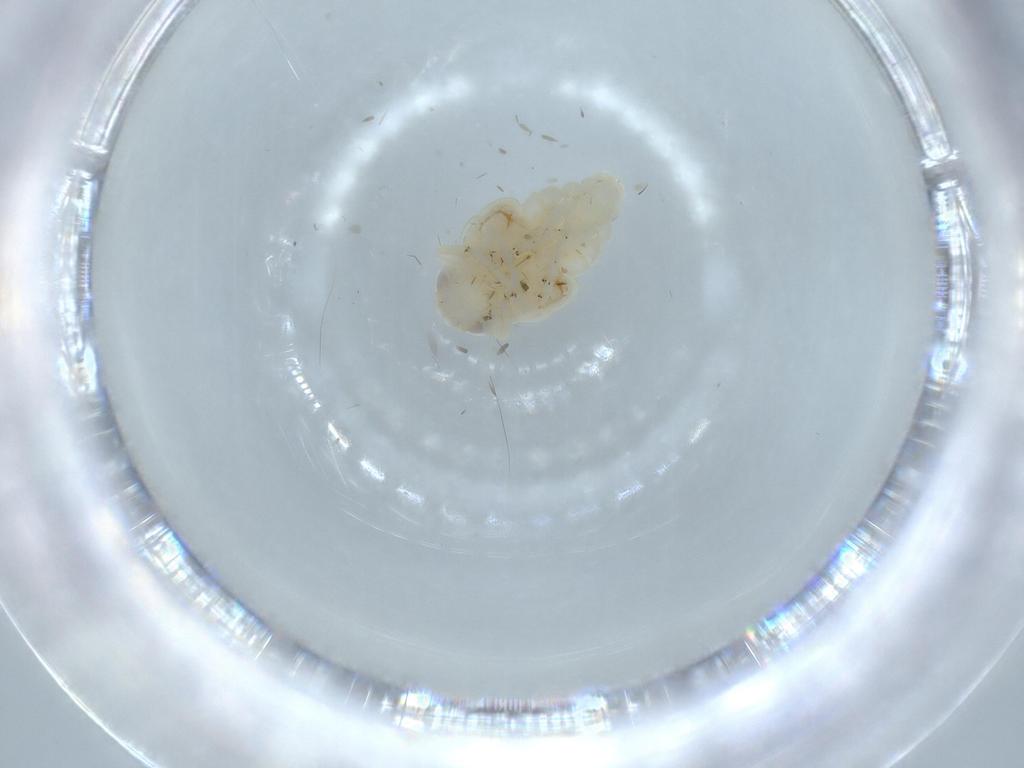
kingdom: Animalia
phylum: Arthropoda
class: Insecta
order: Hemiptera
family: Nogodinidae
